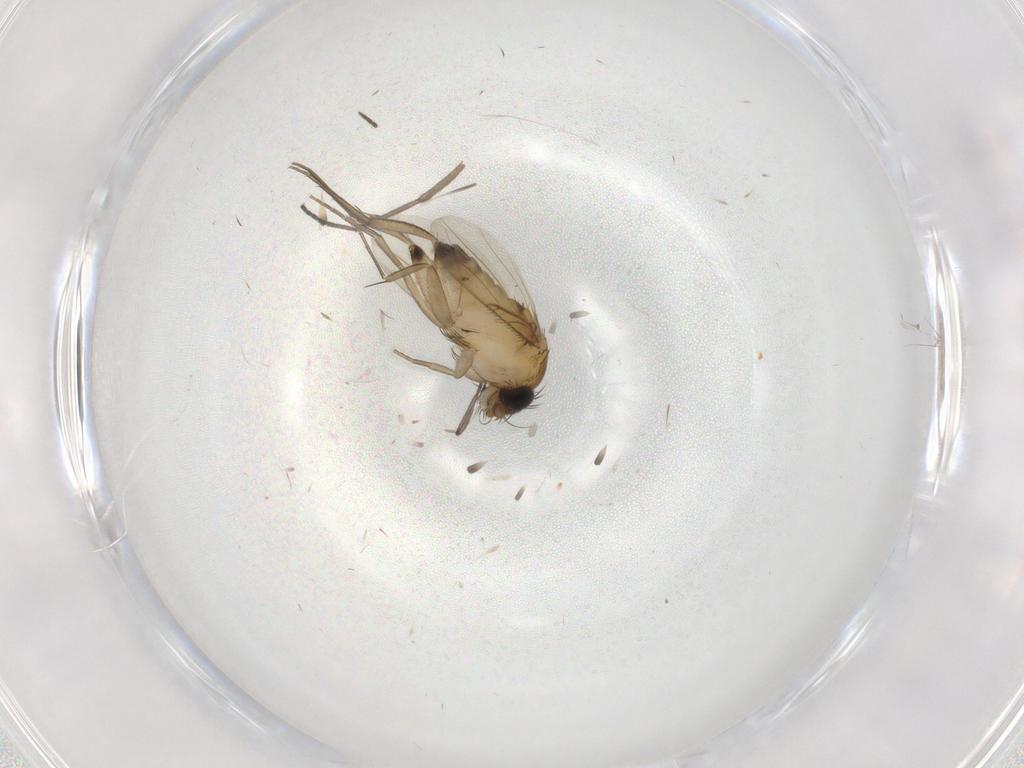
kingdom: Animalia
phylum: Arthropoda
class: Insecta
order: Diptera
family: Phoridae
